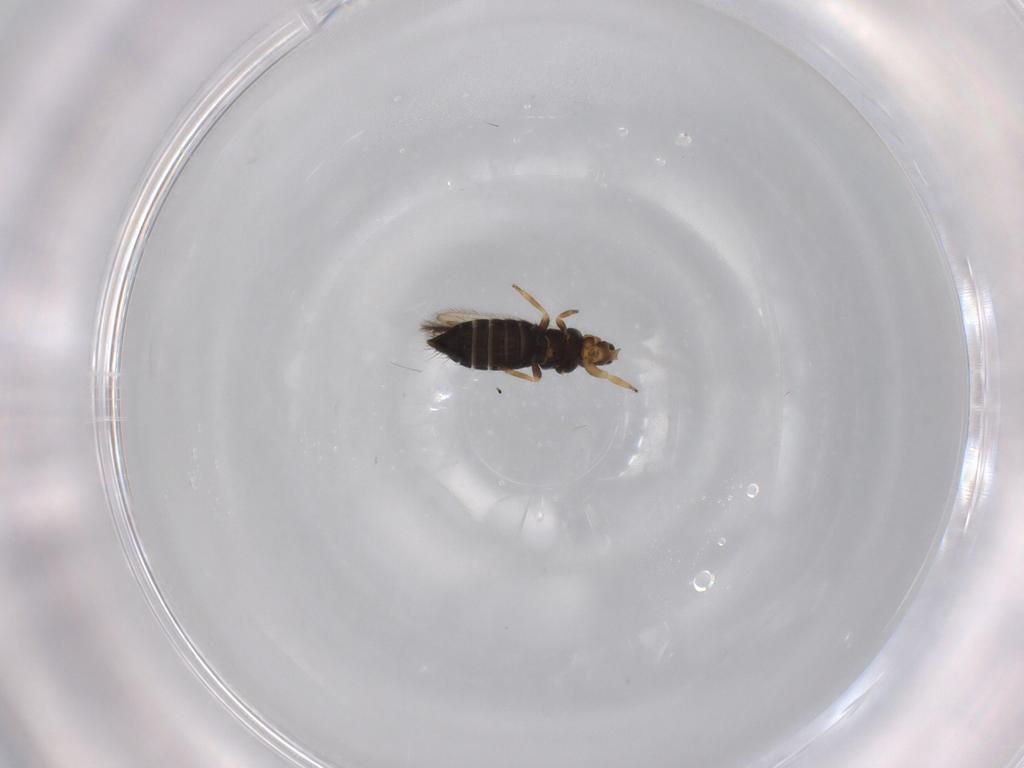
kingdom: Animalia
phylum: Arthropoda
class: Insecta
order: Thysanoptera
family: Melanthripidae
